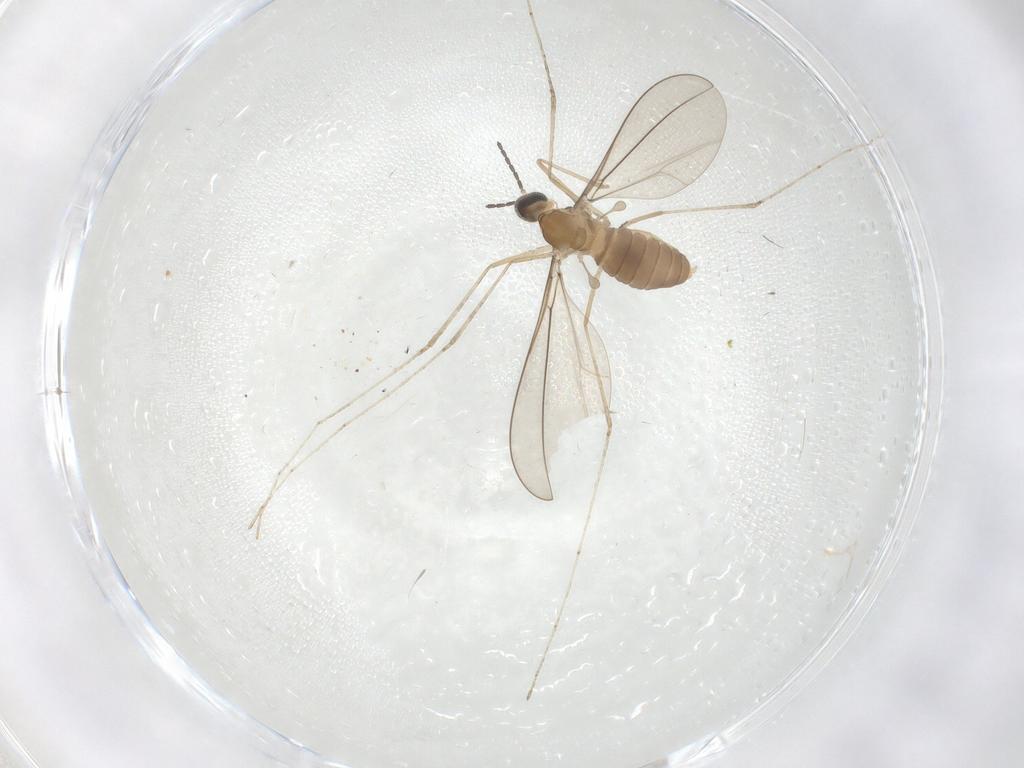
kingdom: Animalia
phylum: Arthropoda
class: Insecta
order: Diptera
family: Cecidomyiidae
